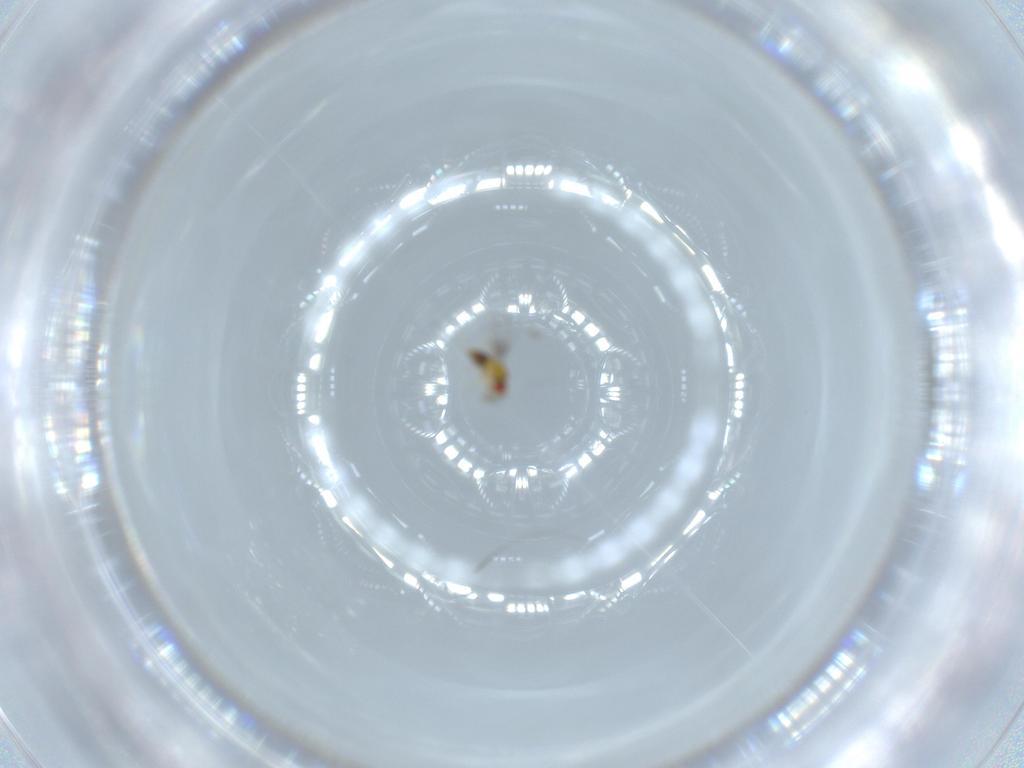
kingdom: Animalia
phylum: Arthropoda
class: Insecta
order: Hymenoptera
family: Trichogrammatidae
